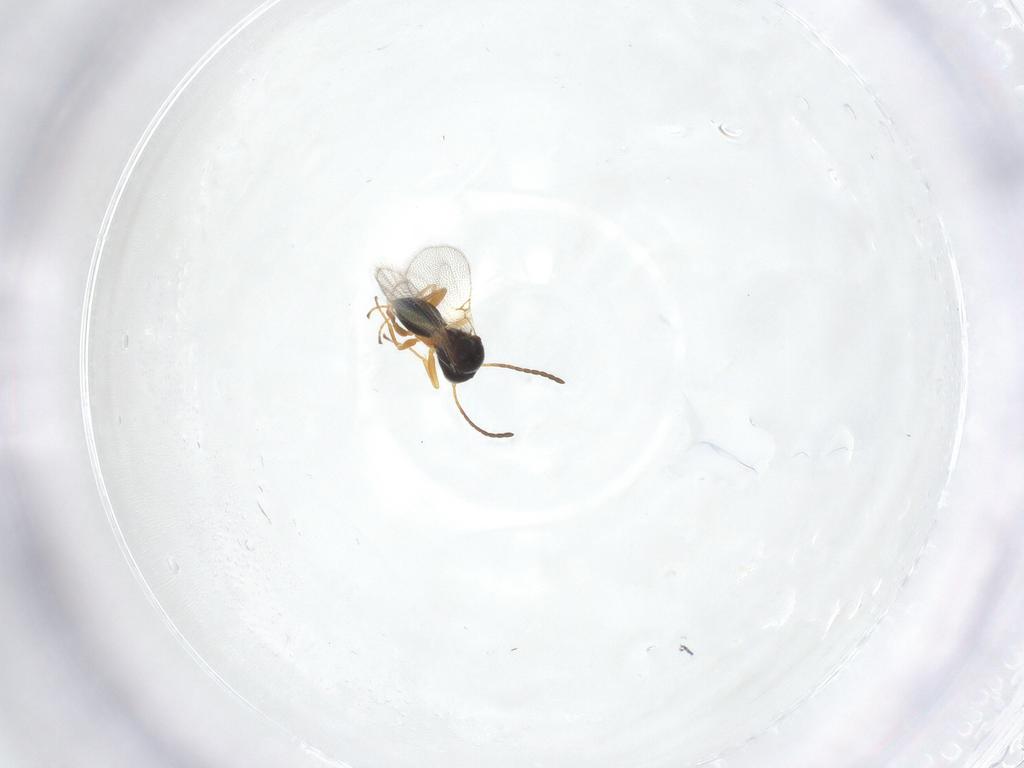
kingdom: Animalia
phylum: Arthropoda
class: Insecta
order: Hymenoptera
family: Figitidae
